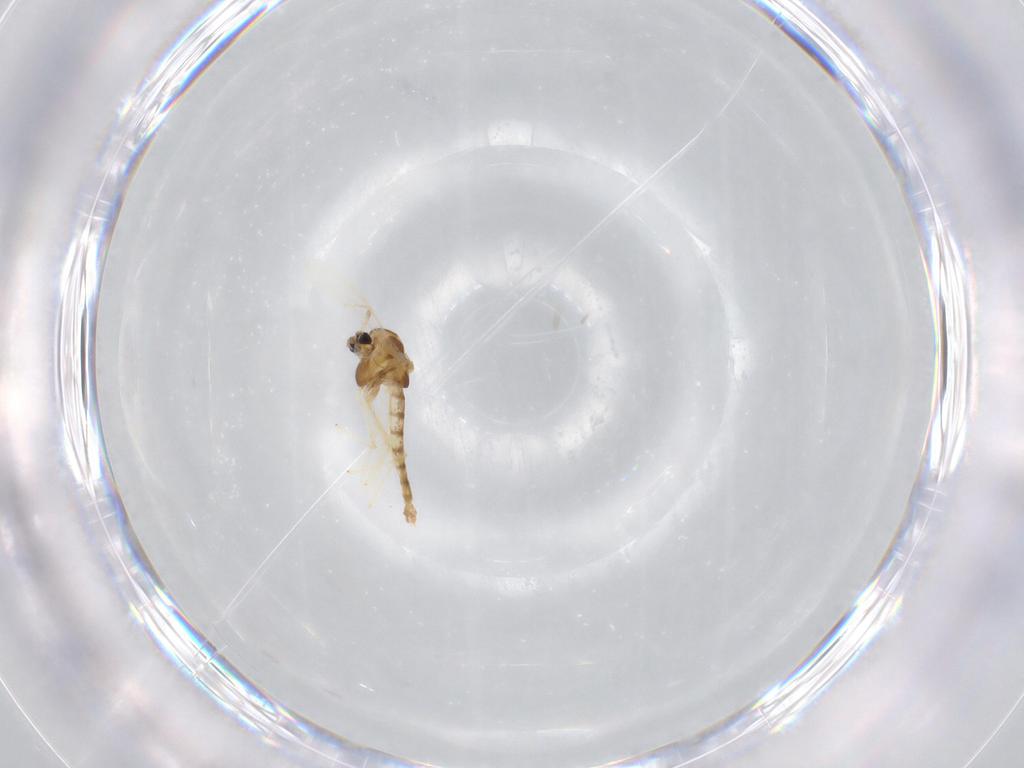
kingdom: Animalia
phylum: Arthropoda
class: Insecta
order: Diptera
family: Chironomidae
